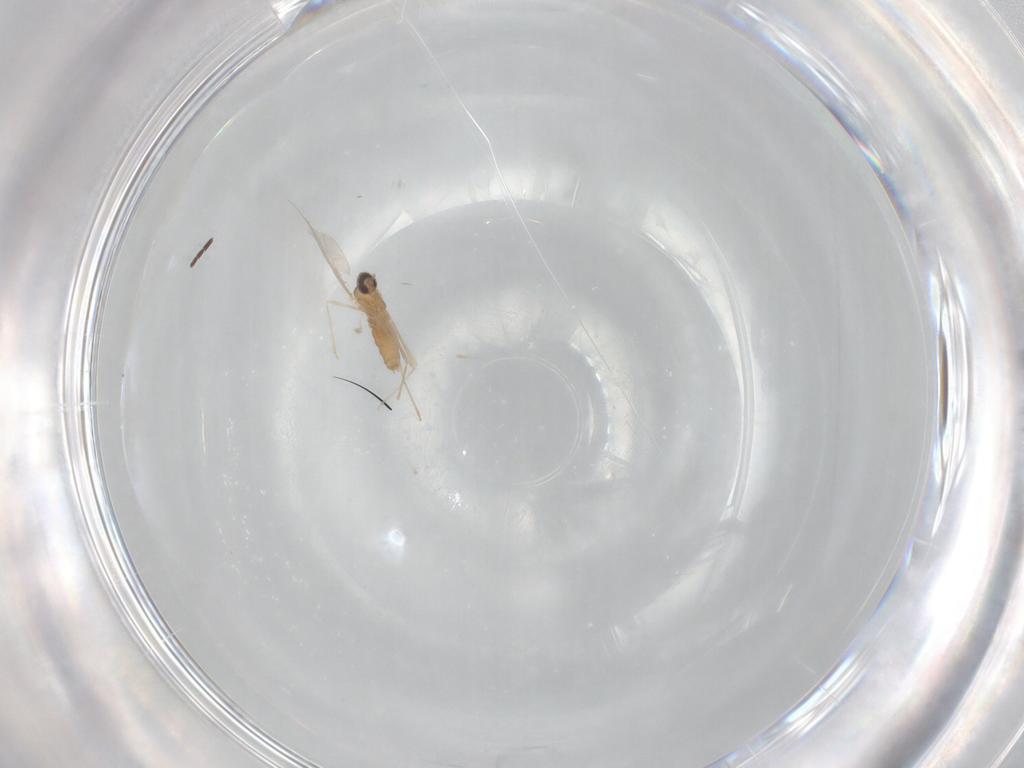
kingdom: Animalia
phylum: Arthropoda
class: Insecta
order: Diptera
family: Cecidomyiidae
